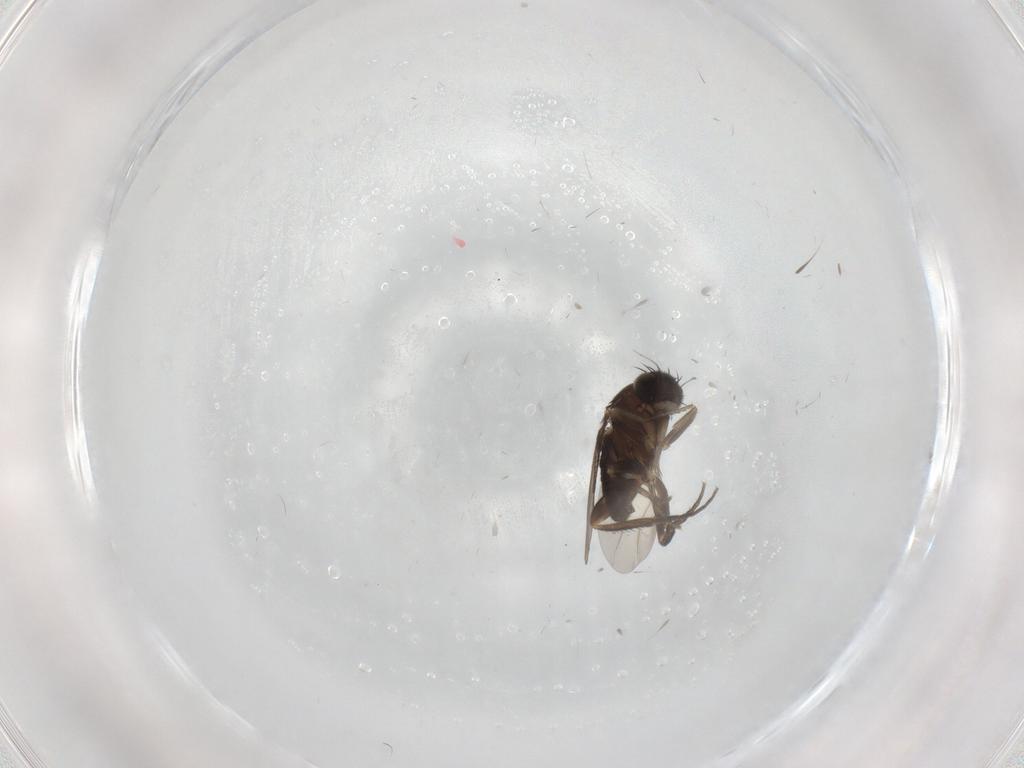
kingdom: Animalia
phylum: Arthropoda
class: Insecta
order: Diptera
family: Phoridae
